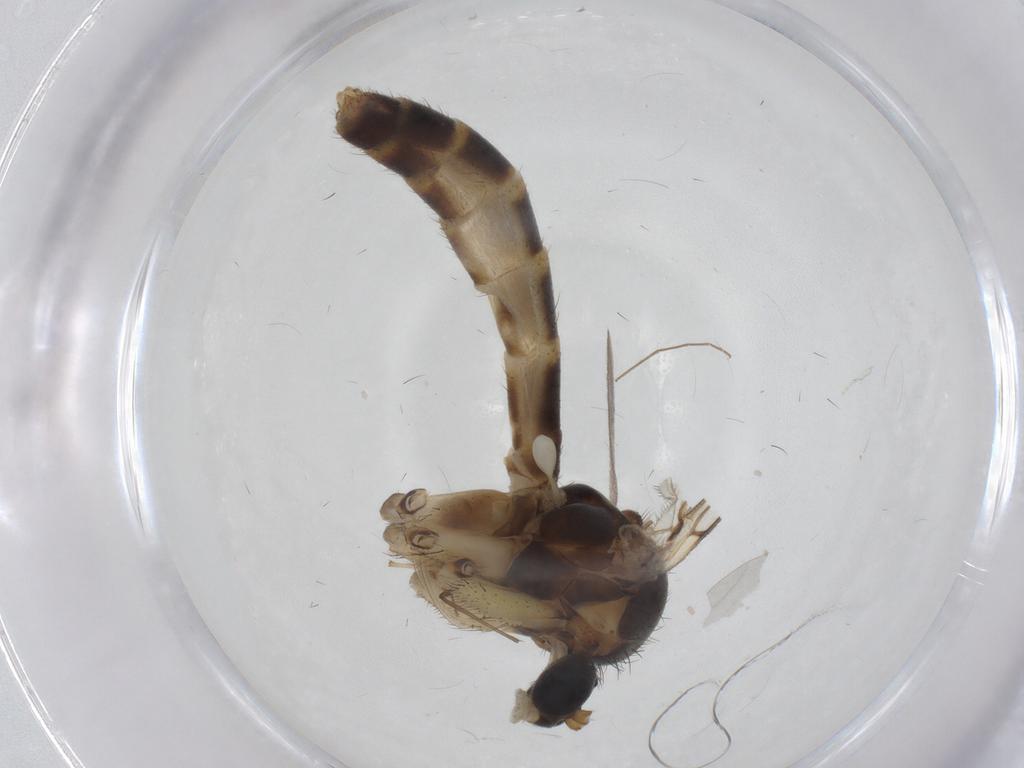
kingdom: Animalia
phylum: Arthropoda
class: Insecta
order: Diptera
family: Mycetophilidae
